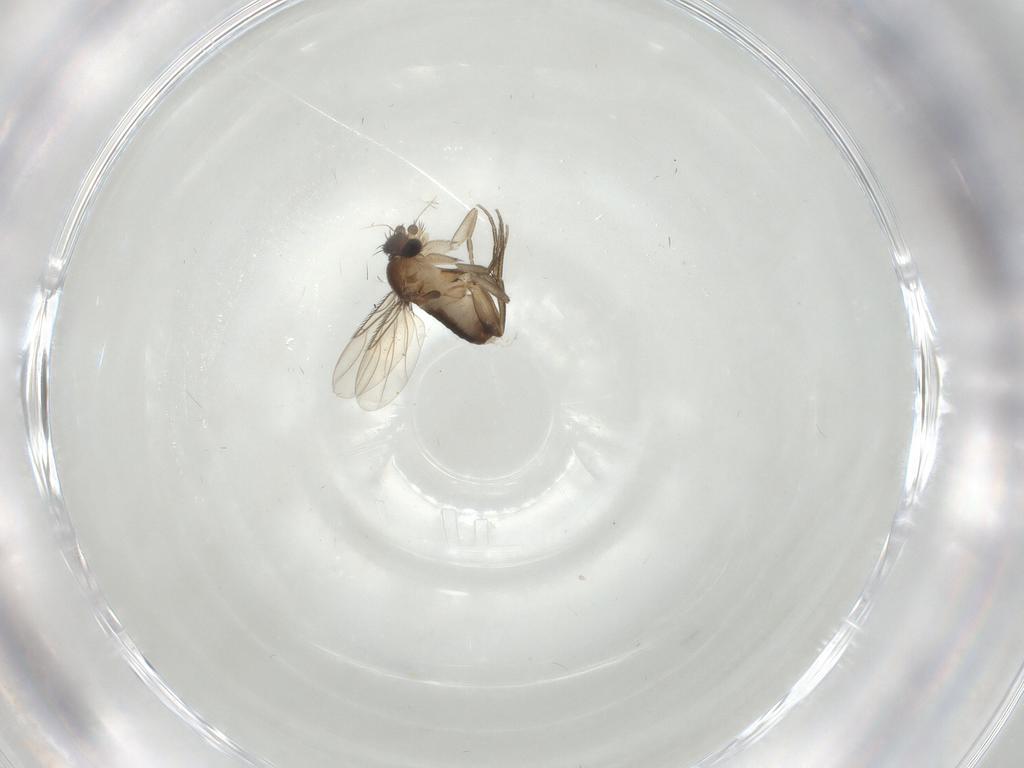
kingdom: Animalia
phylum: Arthropoda
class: Insecta
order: Diptera
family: Phoridae
